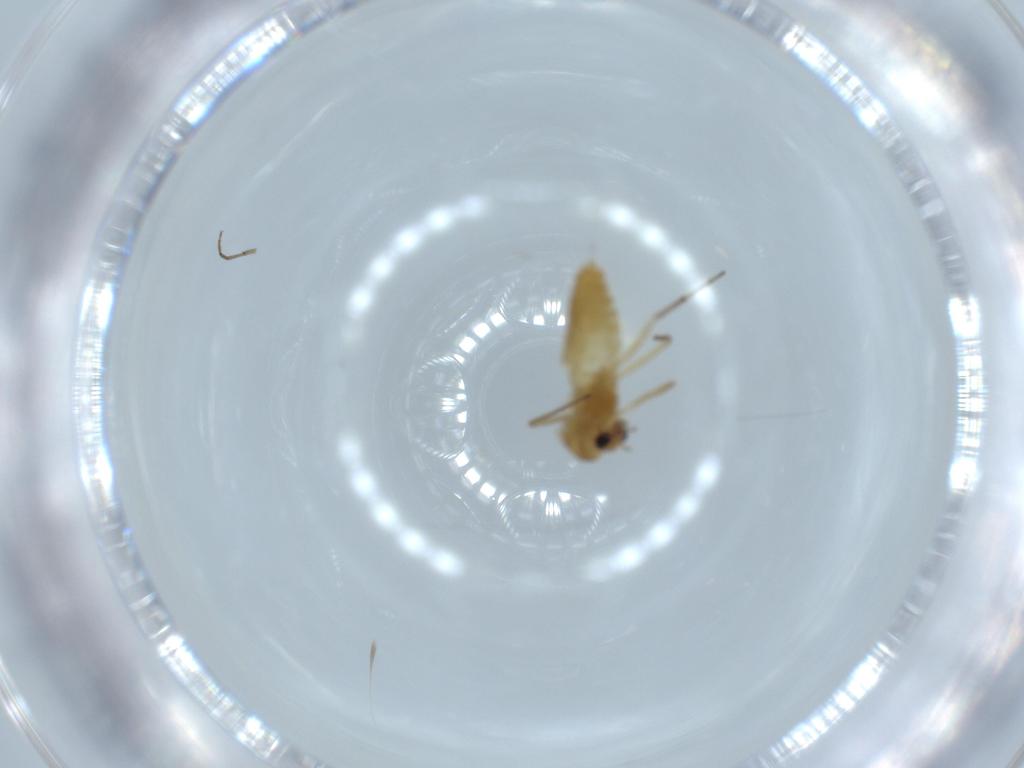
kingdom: Animalia
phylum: Arthropoda
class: Insecta
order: Diptera
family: Chironomidae
